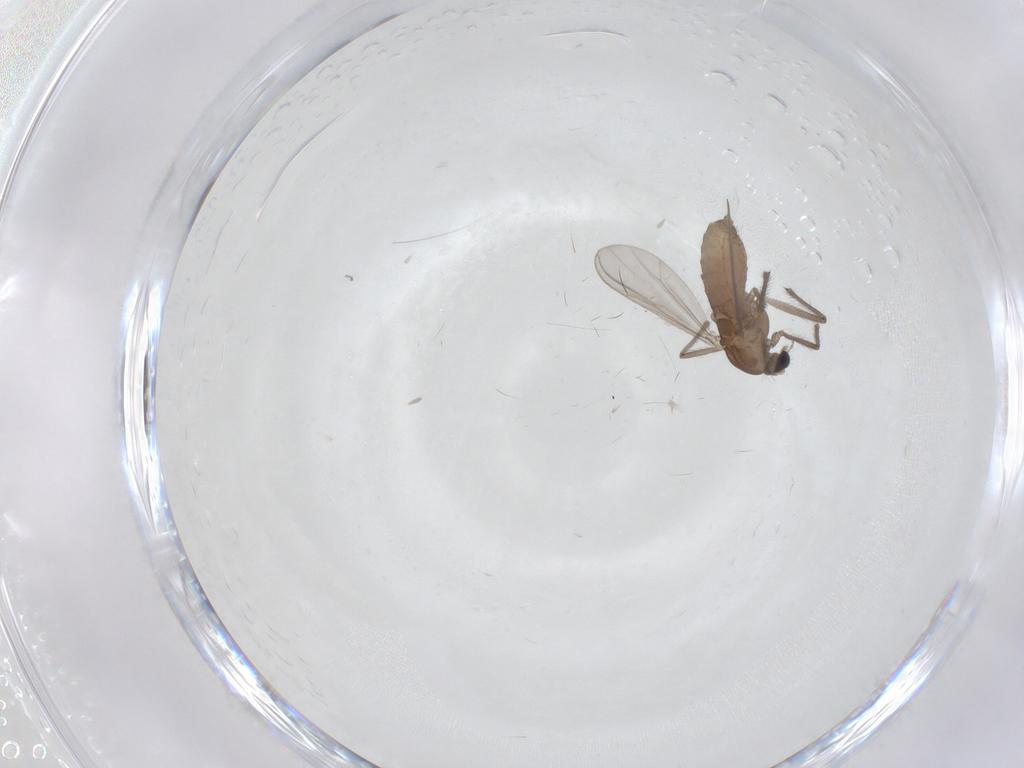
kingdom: Animalia
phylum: Arthropoda
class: Insecta
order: Diptera
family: Chironomidae
